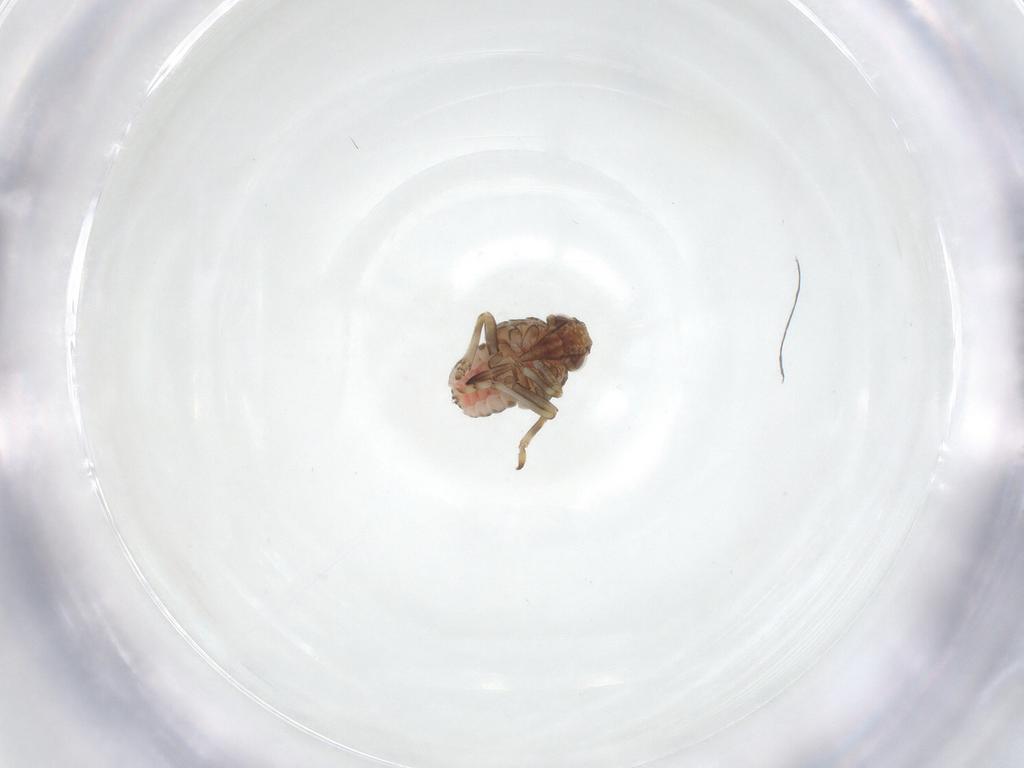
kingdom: Animalia
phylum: Arthropoda
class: Insecta
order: Hemiptera
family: Tropiduchidae
